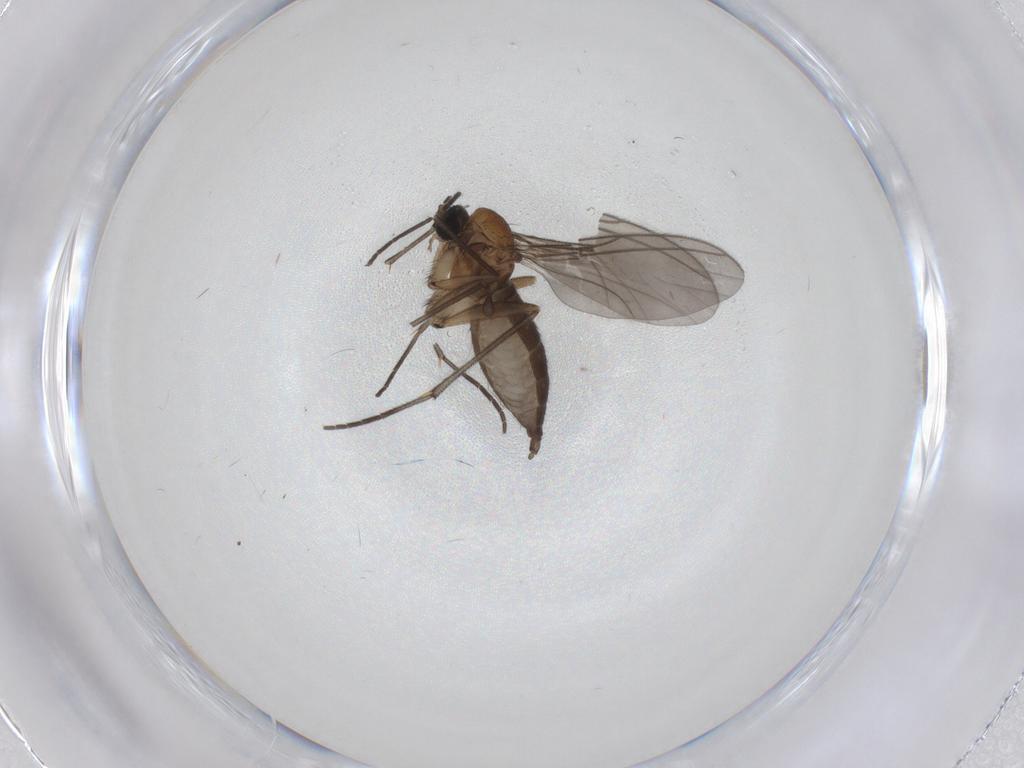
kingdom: Animalia
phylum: Arthropoda
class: Insecta
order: Diptera
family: Sciaridae
